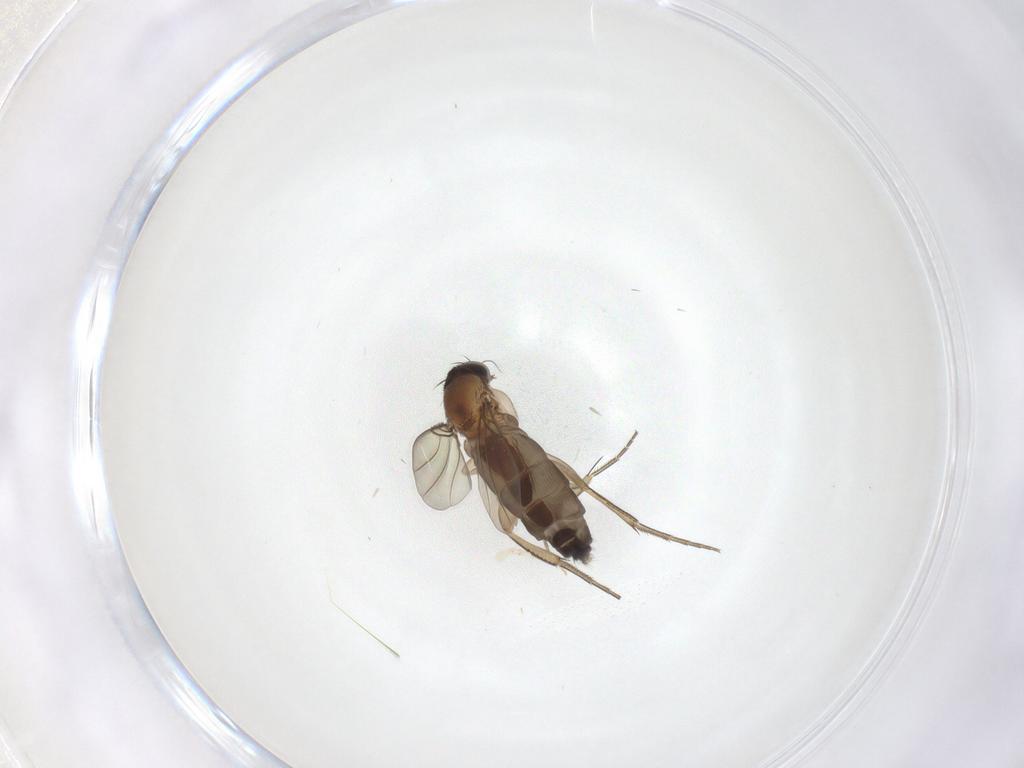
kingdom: Animalia
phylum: Arthropoda
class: Insecta
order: Diptera
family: Phoridae
